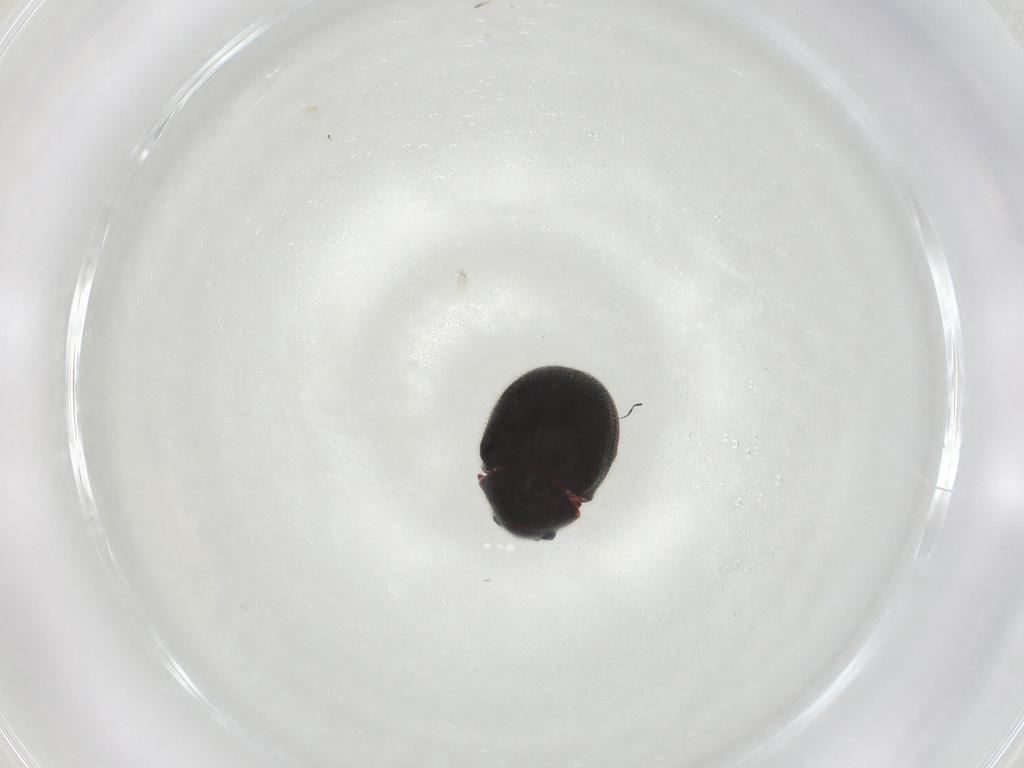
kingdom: Animalia
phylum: Arthropoda
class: Insecta
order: Coleoptera
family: Ptinidae
